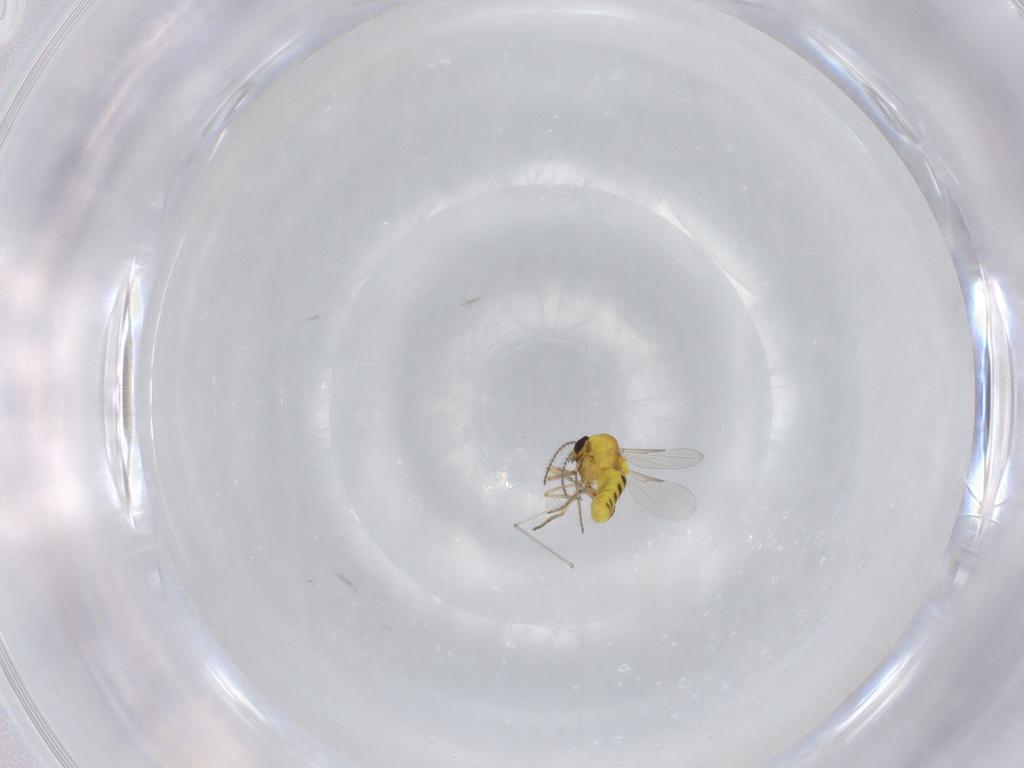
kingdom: Animalia
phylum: Arthropoda
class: Insecta
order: Diptera
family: Ceratopogonidae
